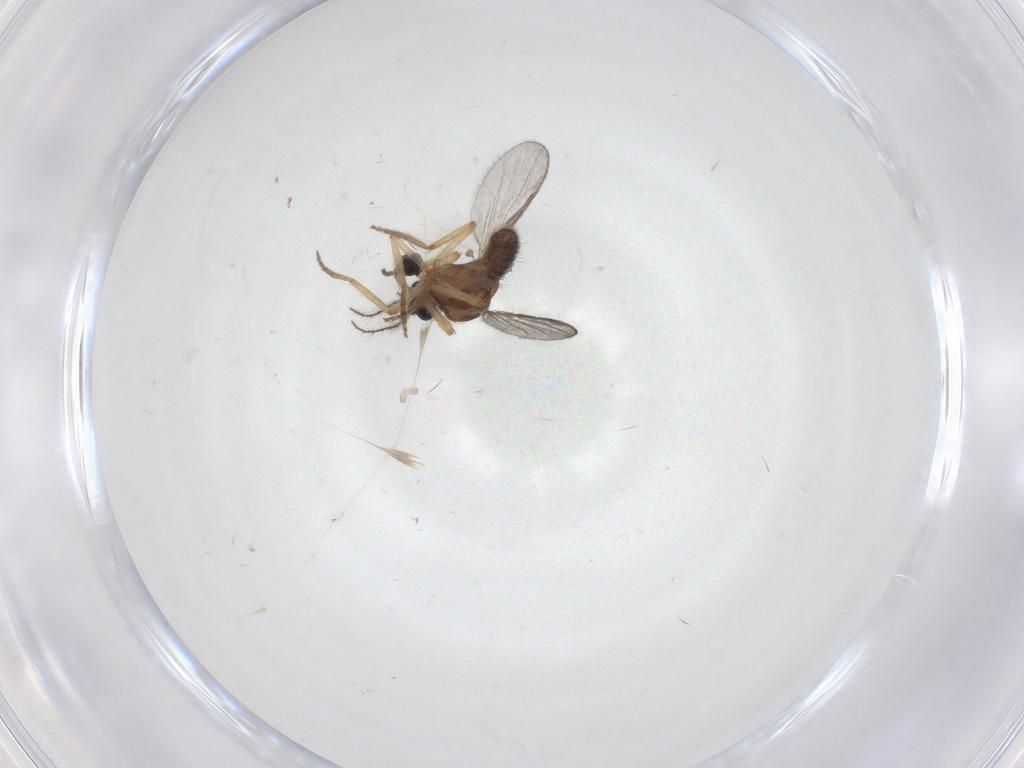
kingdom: Animalia
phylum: Arthropoda
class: Insecta
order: Diptera
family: Ceratopogonidae
